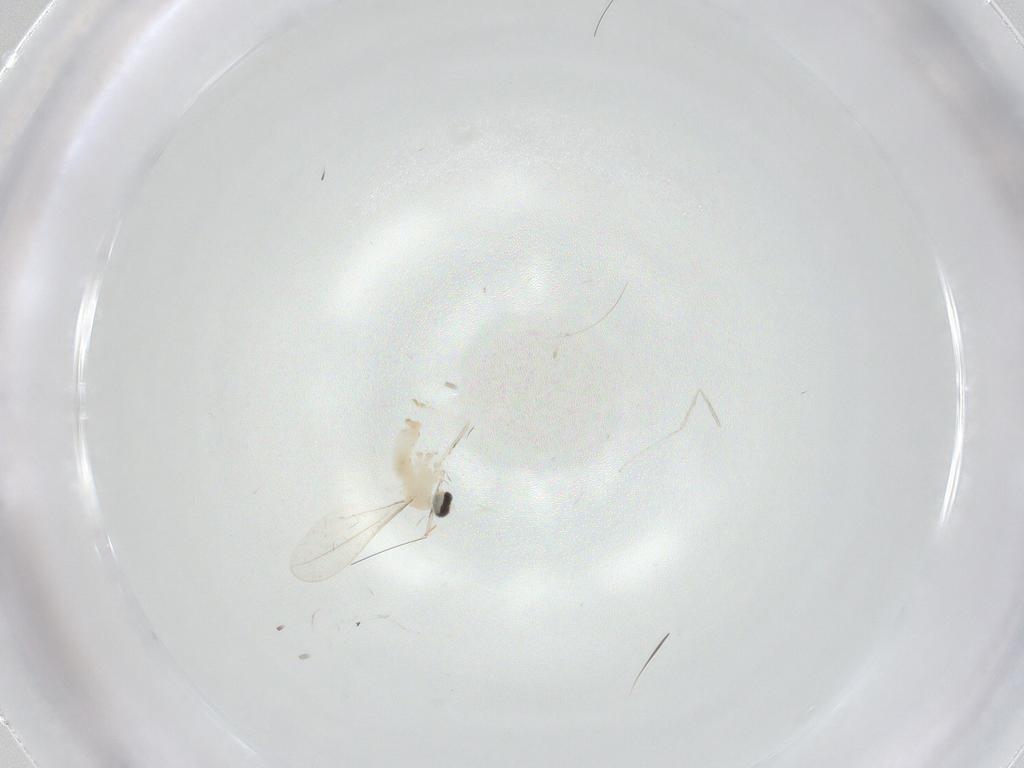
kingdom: Animalia
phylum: Arthropoda
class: Insecta
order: Diptera
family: Cecidomyiidae
